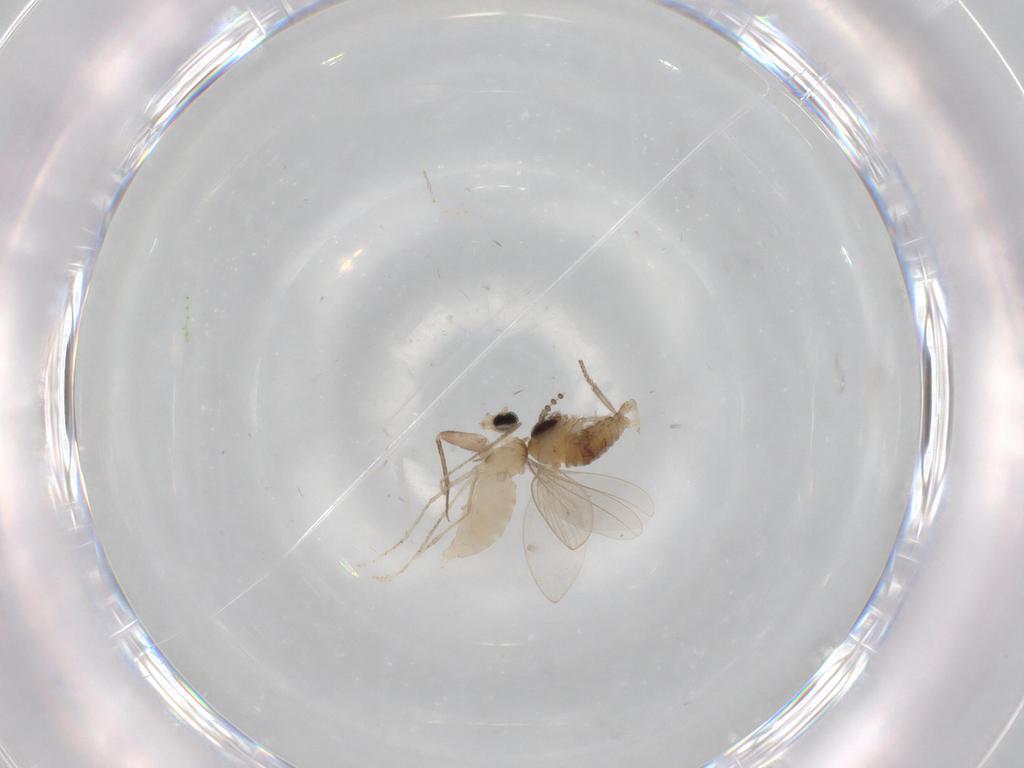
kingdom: Animalia
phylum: Arthropoda
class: Insecta
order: Diptera
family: Psychodidae
